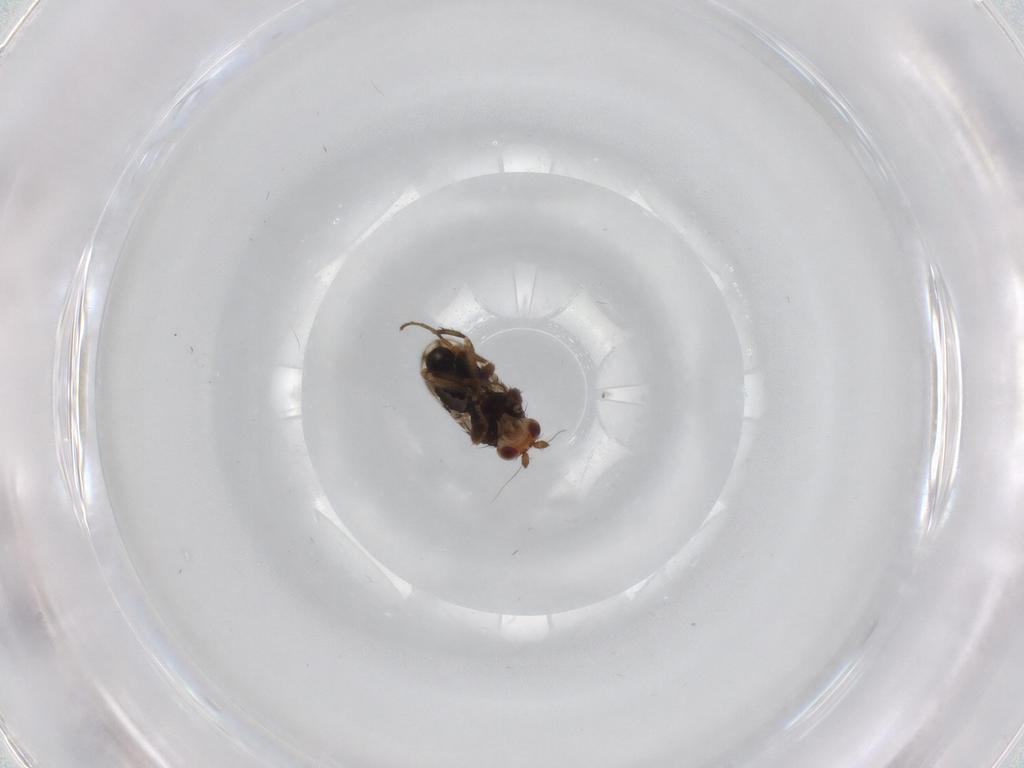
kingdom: Animalia
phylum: Arthropoda
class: Insecta
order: Diptera
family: Sphaeroceridae
